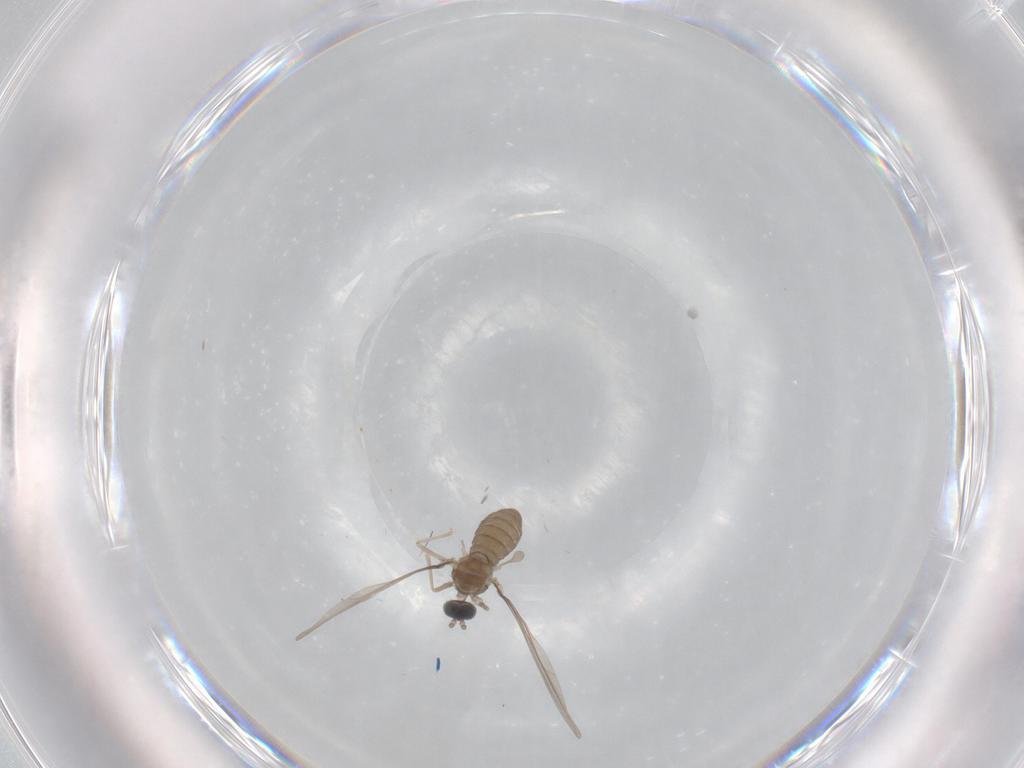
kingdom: Animalia
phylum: Arthropoda
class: Insecta
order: Diptera
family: Cecidomyiidae
